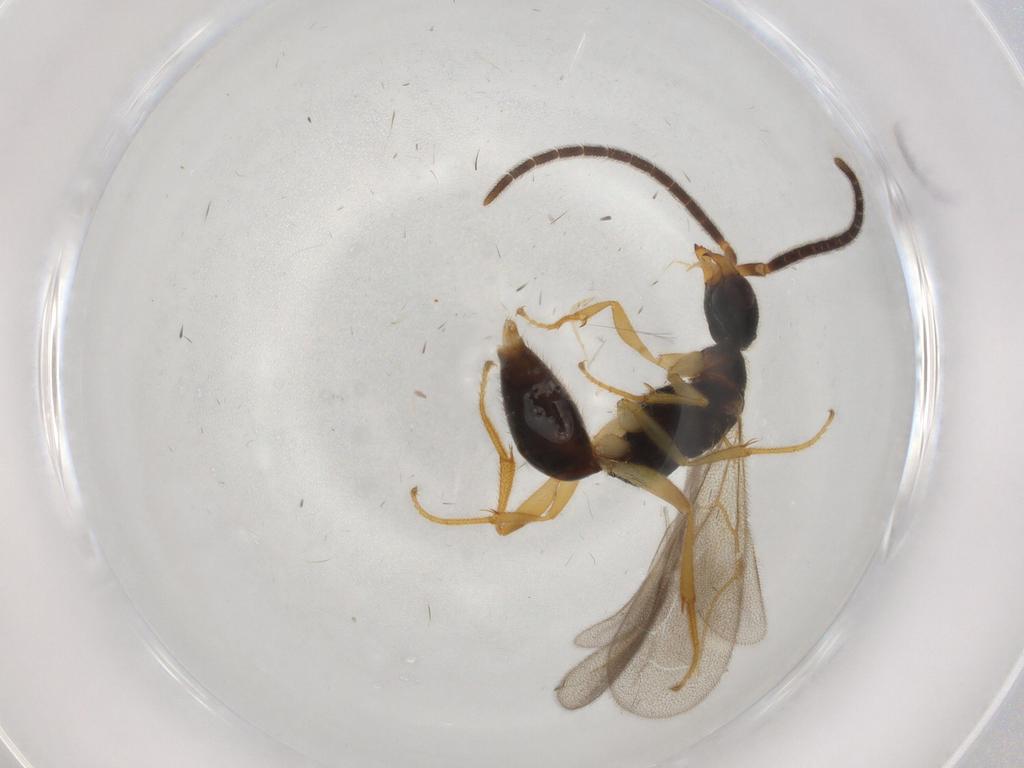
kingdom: Animalia
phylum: Arthropoda
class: Insecta
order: Hymenoptera
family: Bethylidae
